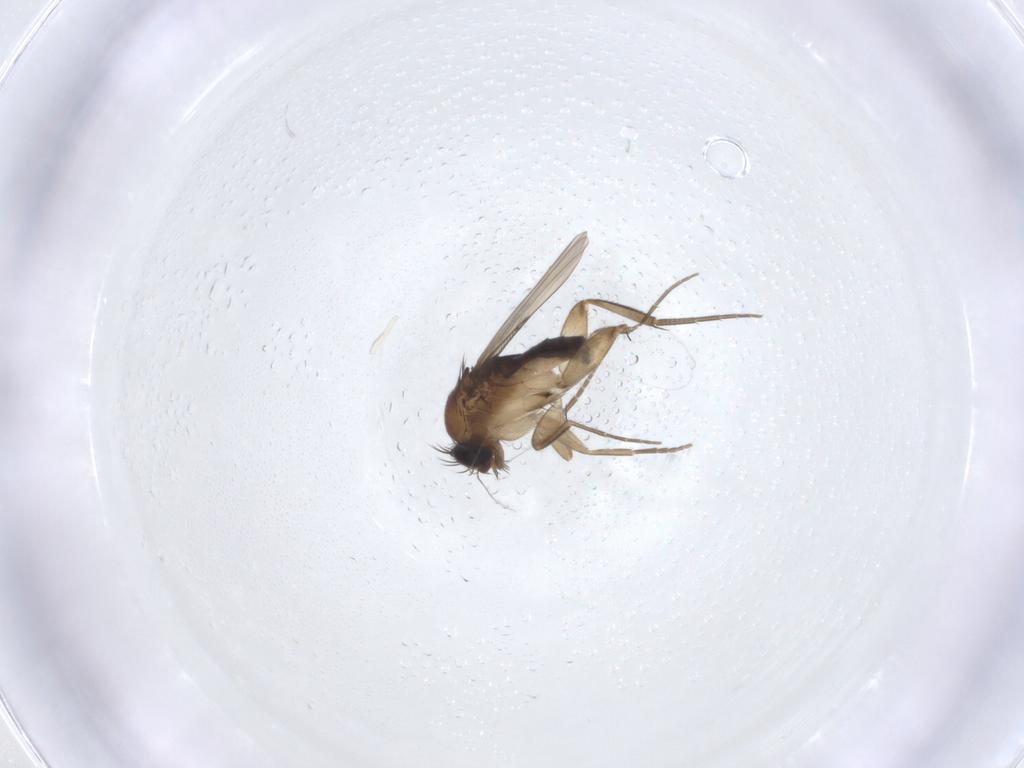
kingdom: Animalia
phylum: Arthropoda
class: Insecta
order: Diptera
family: Phoridae
